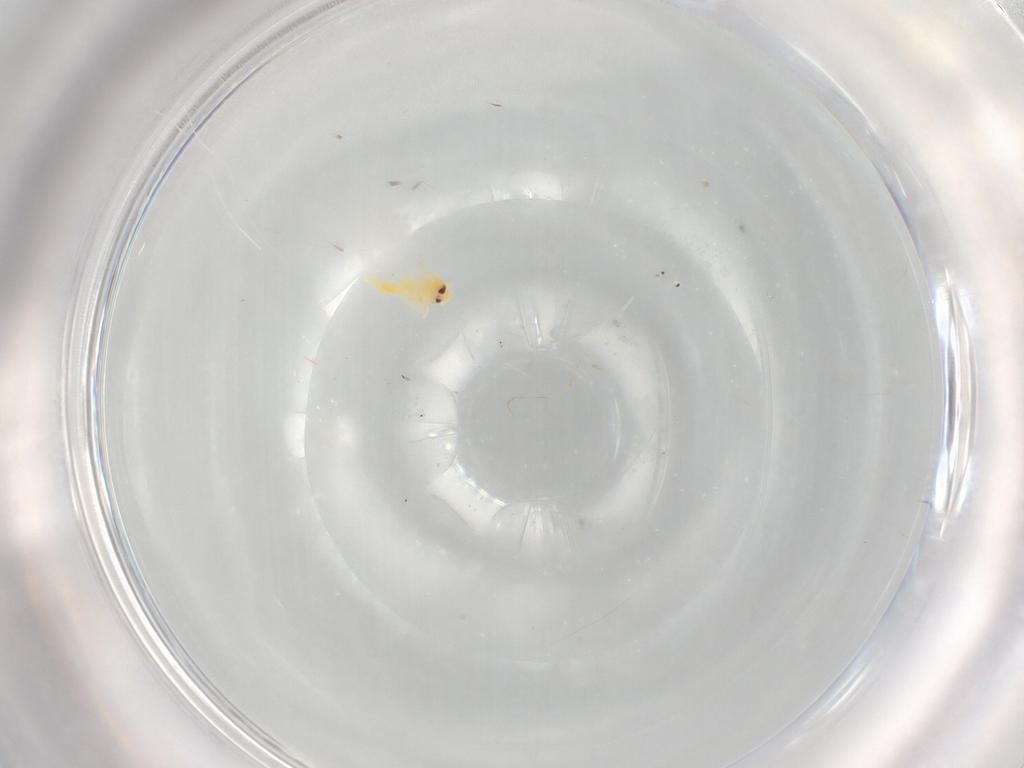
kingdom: Animalia
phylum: Arthropoda
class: Insecta
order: Hemiptera
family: Aleyrodidae
